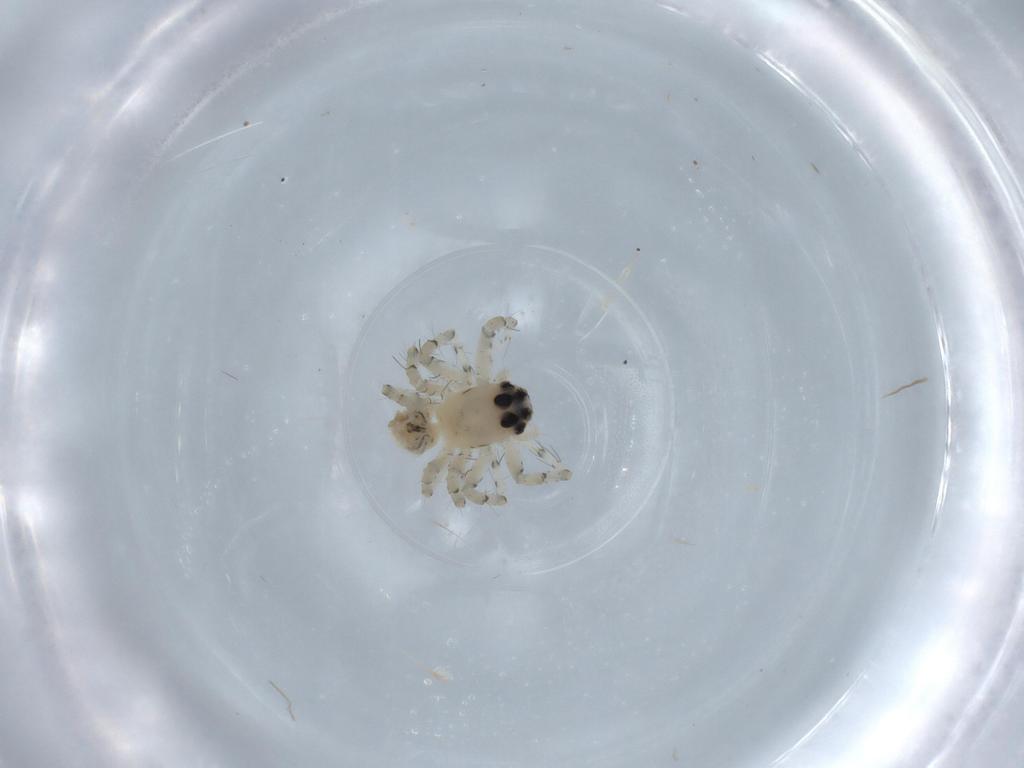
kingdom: Animalia
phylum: Arthropoda
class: Arachnida
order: Araneae
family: Oxyopidae
